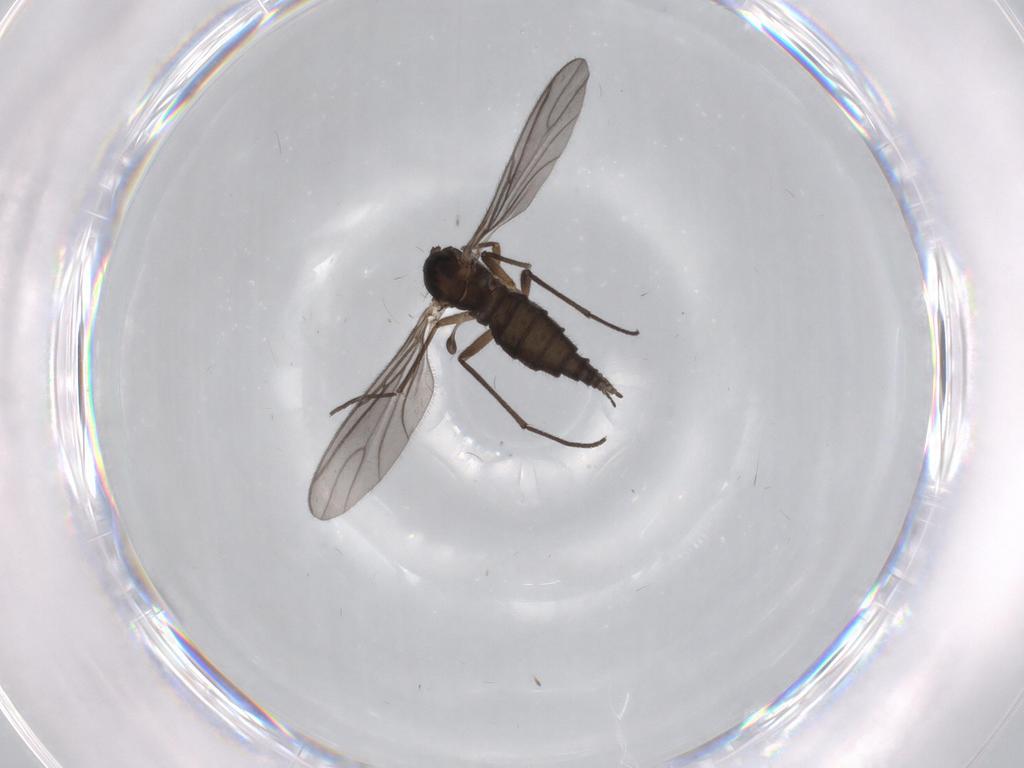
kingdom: Animalia
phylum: Arthropoda
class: Insecta
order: Diptera
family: Sciaridae
